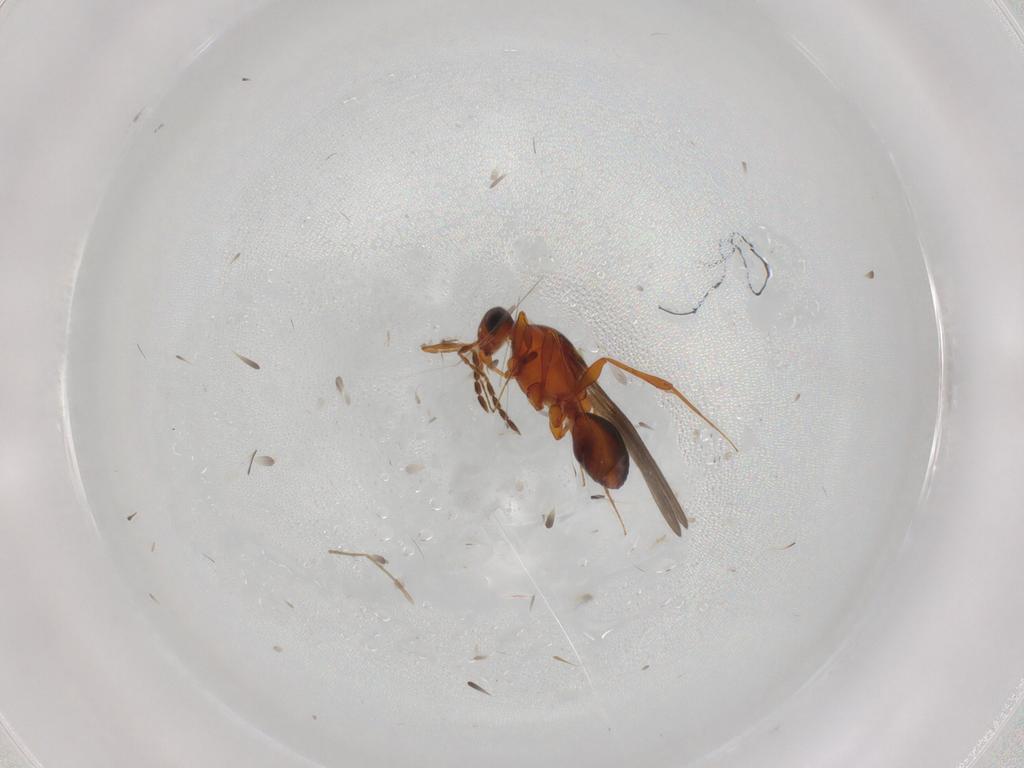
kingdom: Animalia
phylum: Arthropoda
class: Insecta
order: Hymenoptera
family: Platygastridae
